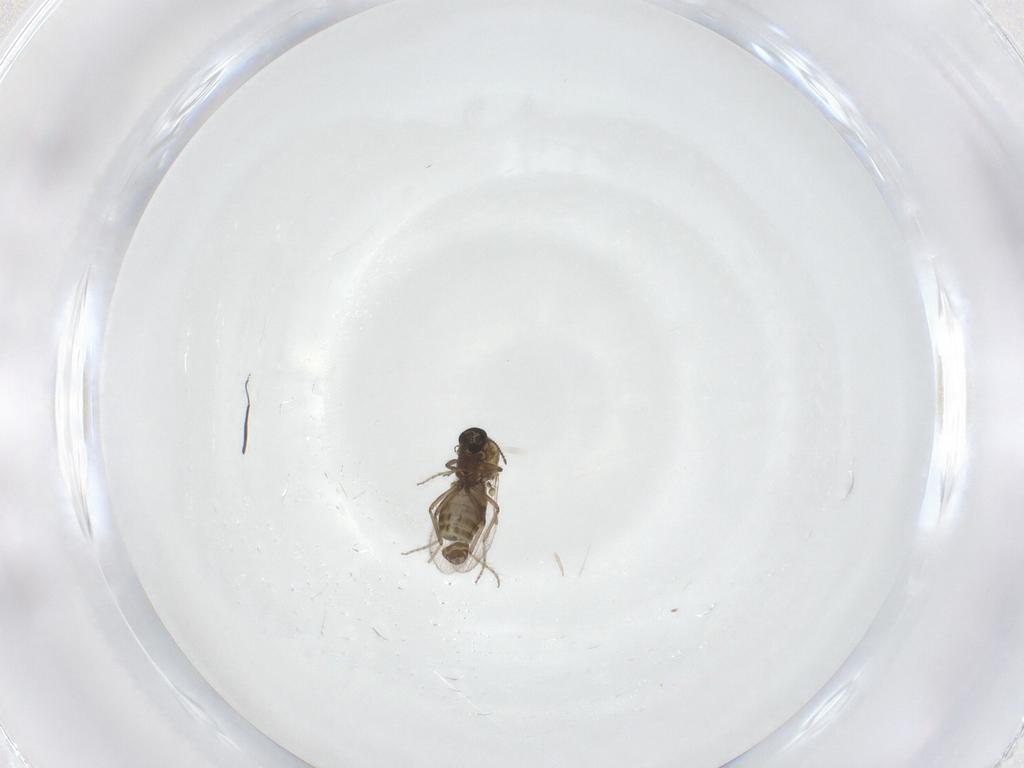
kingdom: Animalia
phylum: Arthropoda
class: Insecta
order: Diptera
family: Ceratopogonidae
